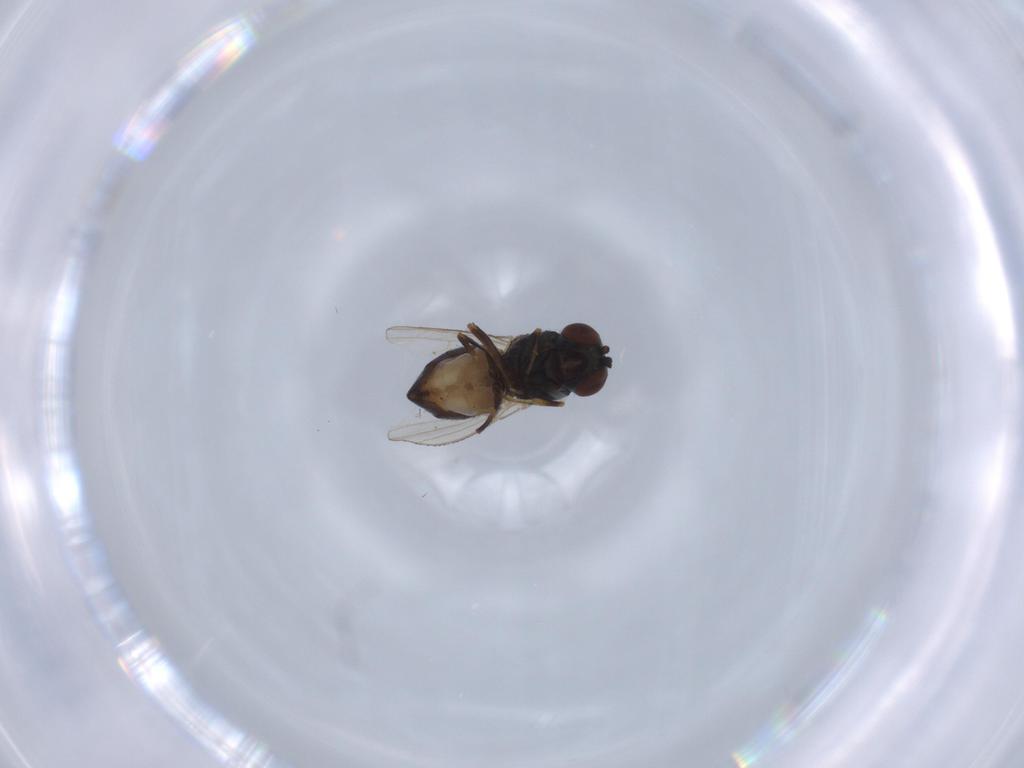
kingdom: Animalia
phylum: Arthropoda
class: Insecta
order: Diptera
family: Ephydridae
